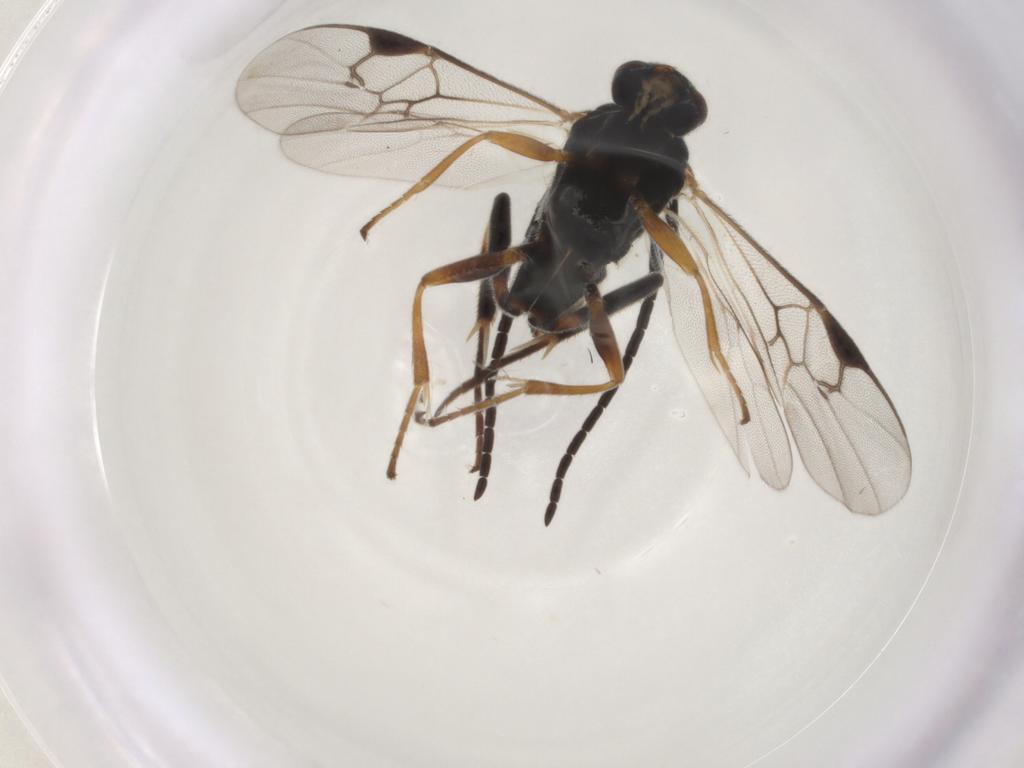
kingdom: Animalia
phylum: Arthropoda
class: Insecta
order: Hymenoptera
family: Braconidae
